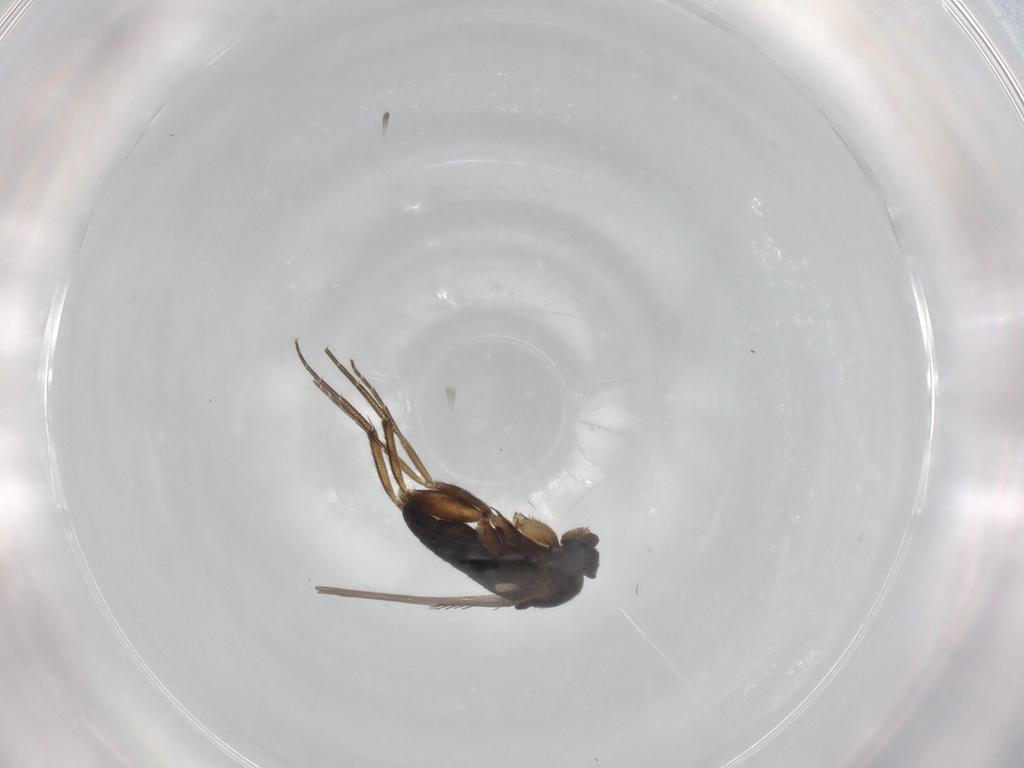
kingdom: Animalia
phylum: Arthropoda
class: Insecta
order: Diptera
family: Phoridae
